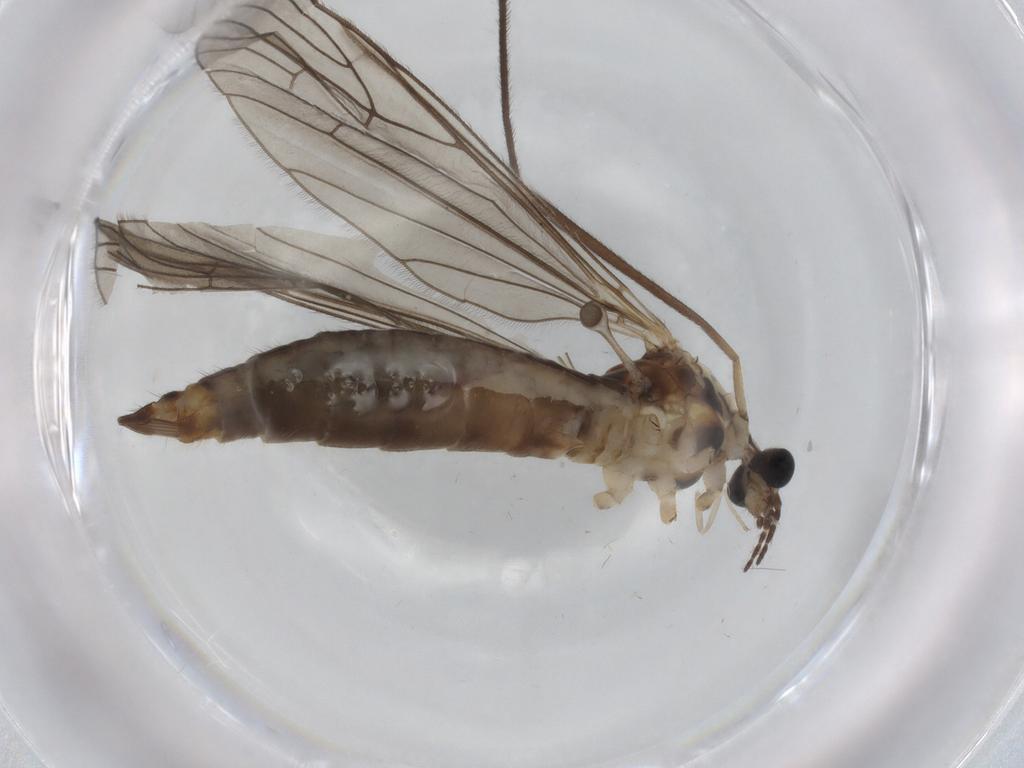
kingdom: Animalia
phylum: Arthropoda
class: Insecta
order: Diptera
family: Limoniidae
